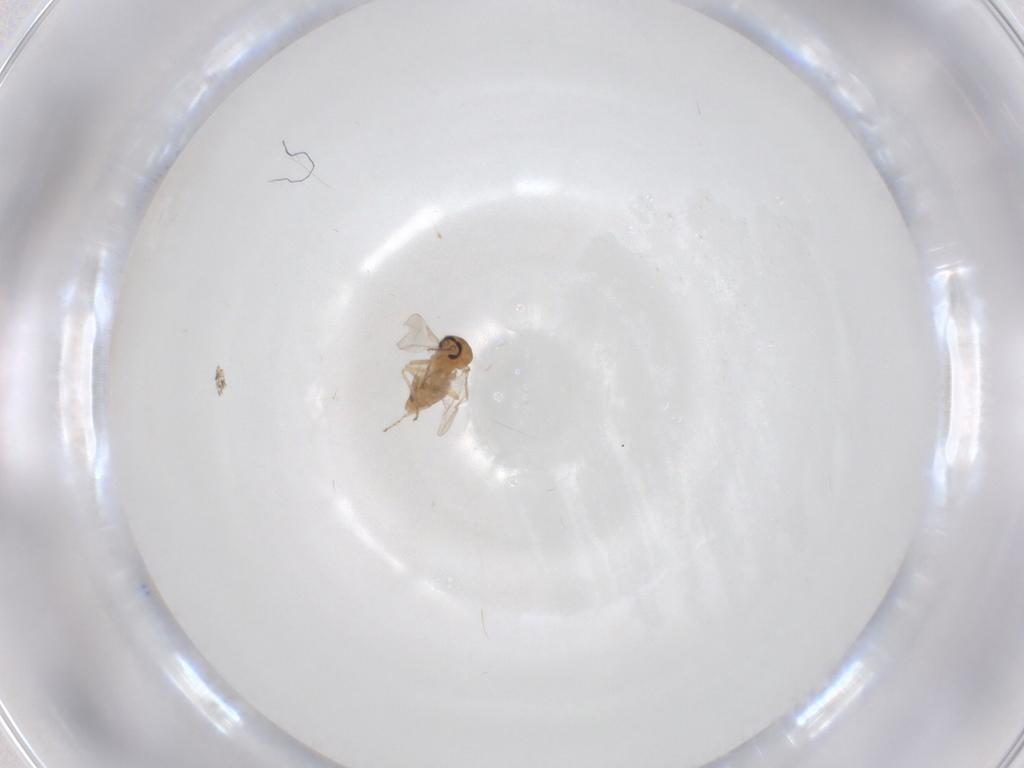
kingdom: Animalia
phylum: Arthropoda
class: Insecta
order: Diptera
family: Ceratopogonidae
